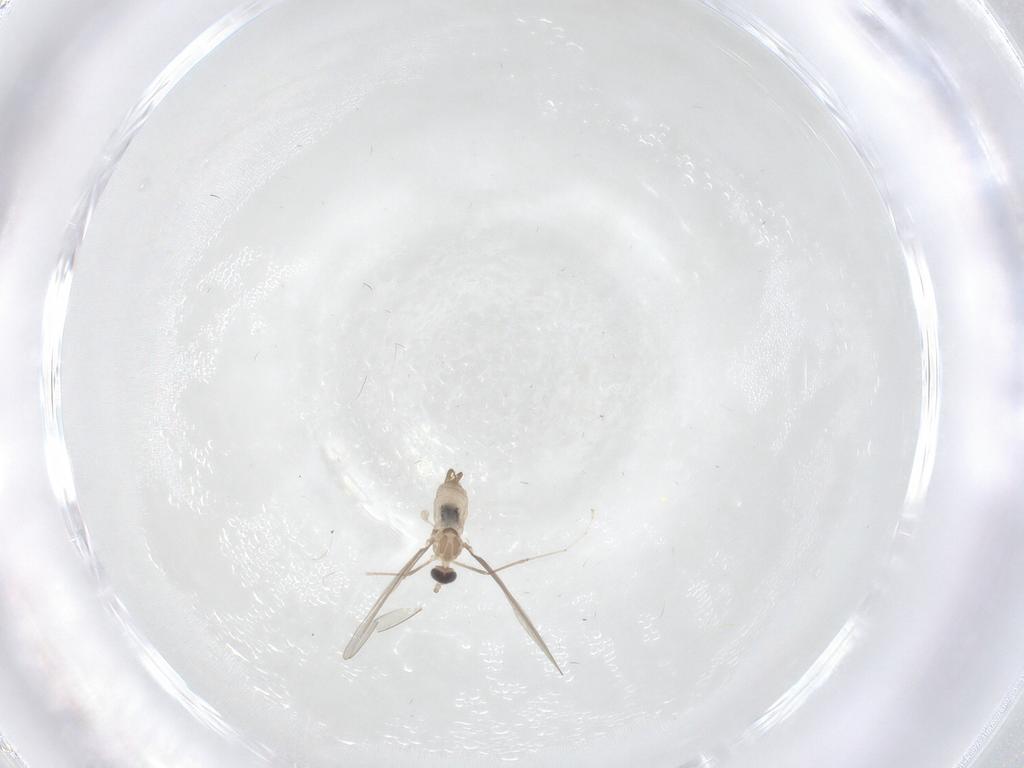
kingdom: Animalia
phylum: Arthropoda
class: Insecta
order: Diptera
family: Cecidomyiidae
